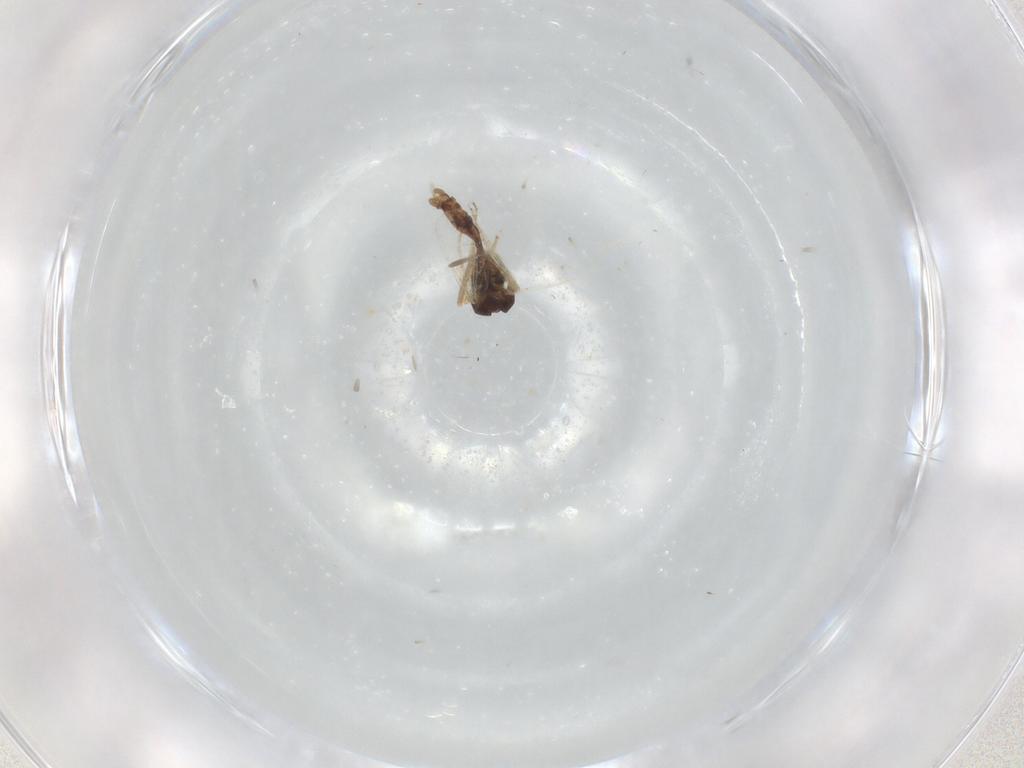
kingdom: Animalia
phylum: Arthropoda
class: Insecta
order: Diptera
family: Ceratopogonidae
